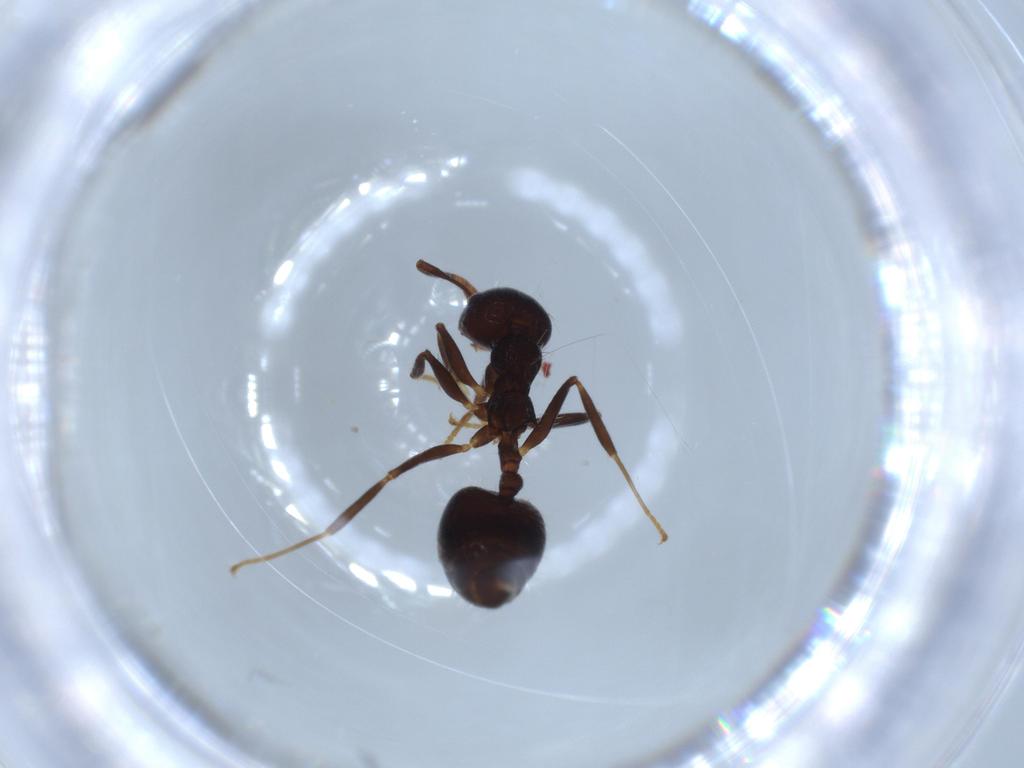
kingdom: Animalia
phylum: Arthropoda
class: Insecta
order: Hymenoptera
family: Formicidae
